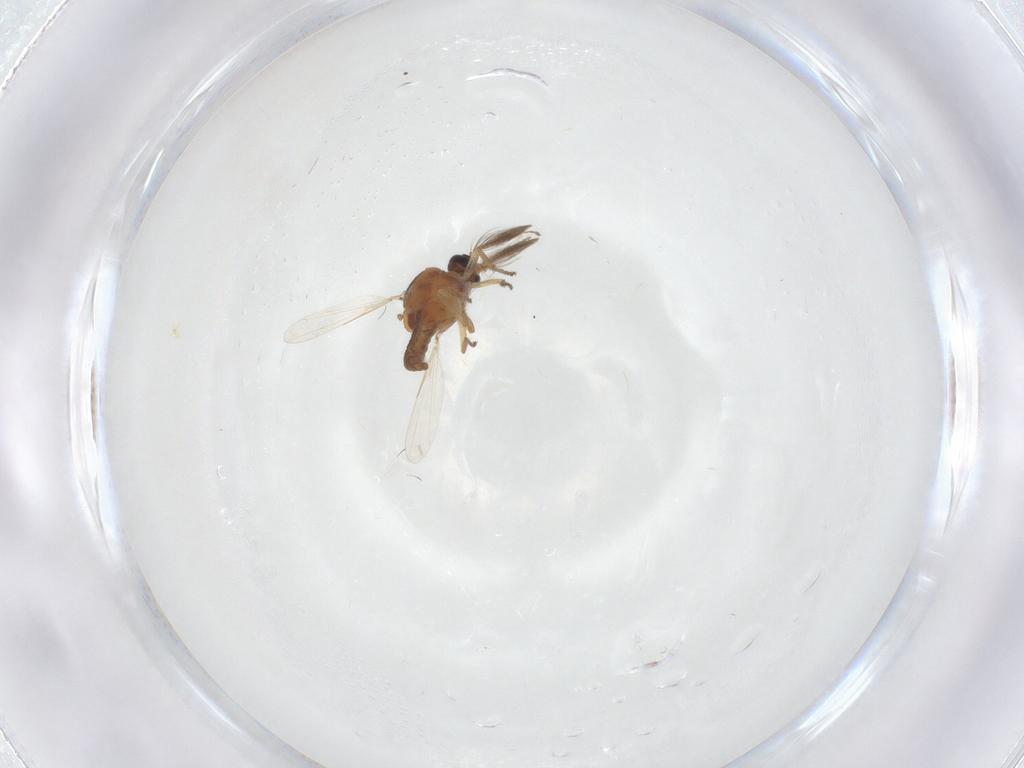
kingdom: Animalia
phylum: Arthropoda
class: Insecta
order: Diptera
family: Ceratopogonidae
